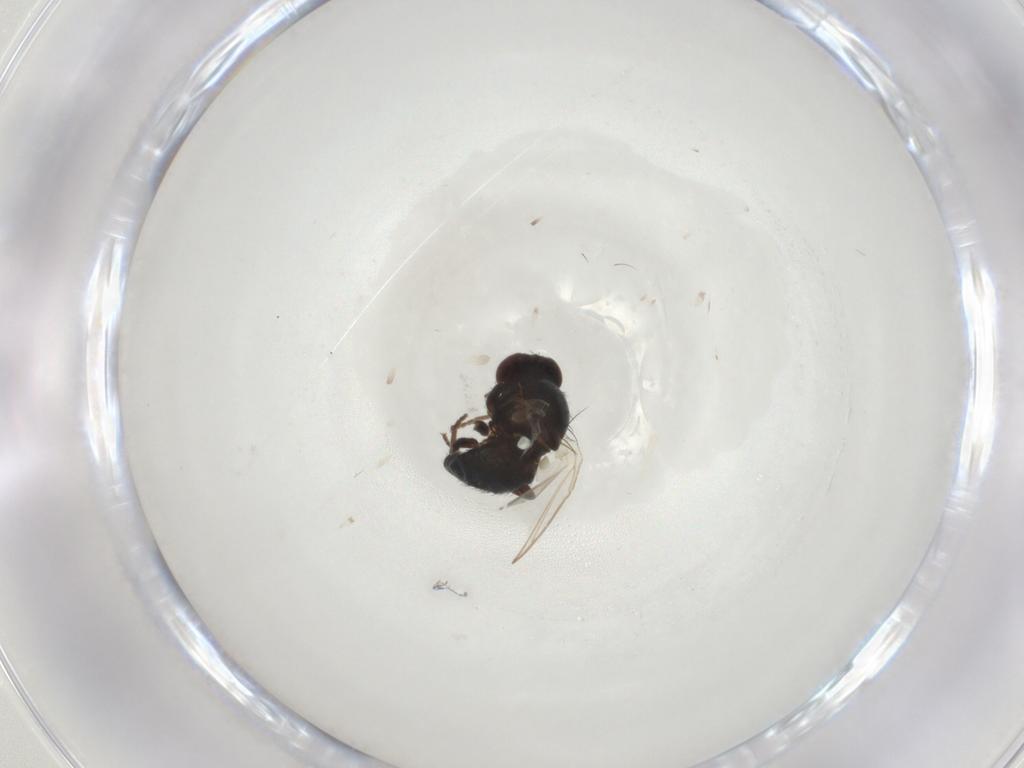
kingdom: Animalia
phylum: Arthropoda
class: Insecta
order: Diptera
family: Agromyzidae
